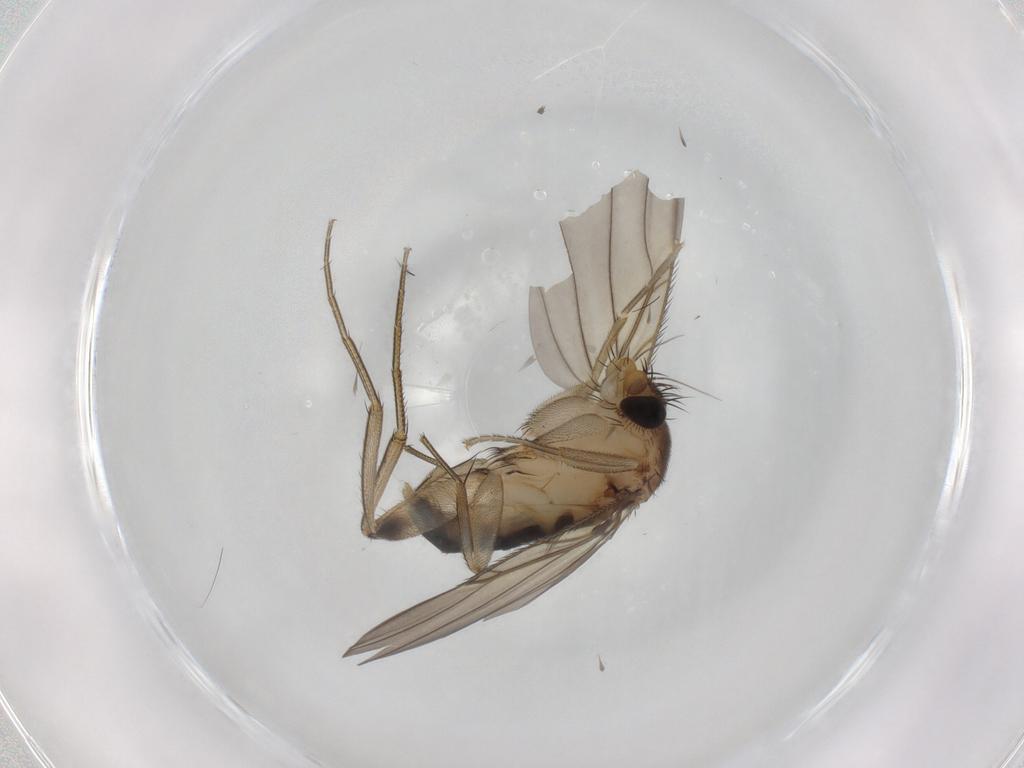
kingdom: Animalia
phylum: Arthropoda
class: Insecta
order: Diptera
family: Phoridae
